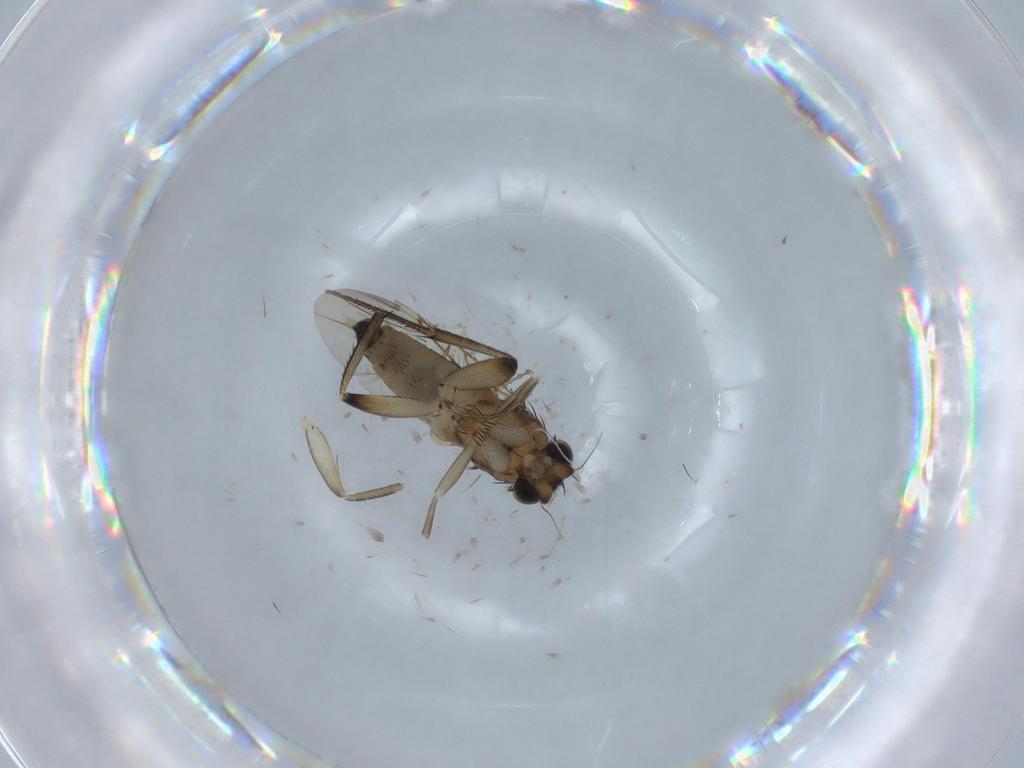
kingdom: Animalia
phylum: Arthropoda
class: Insecta
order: Diptera
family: Phoridae
